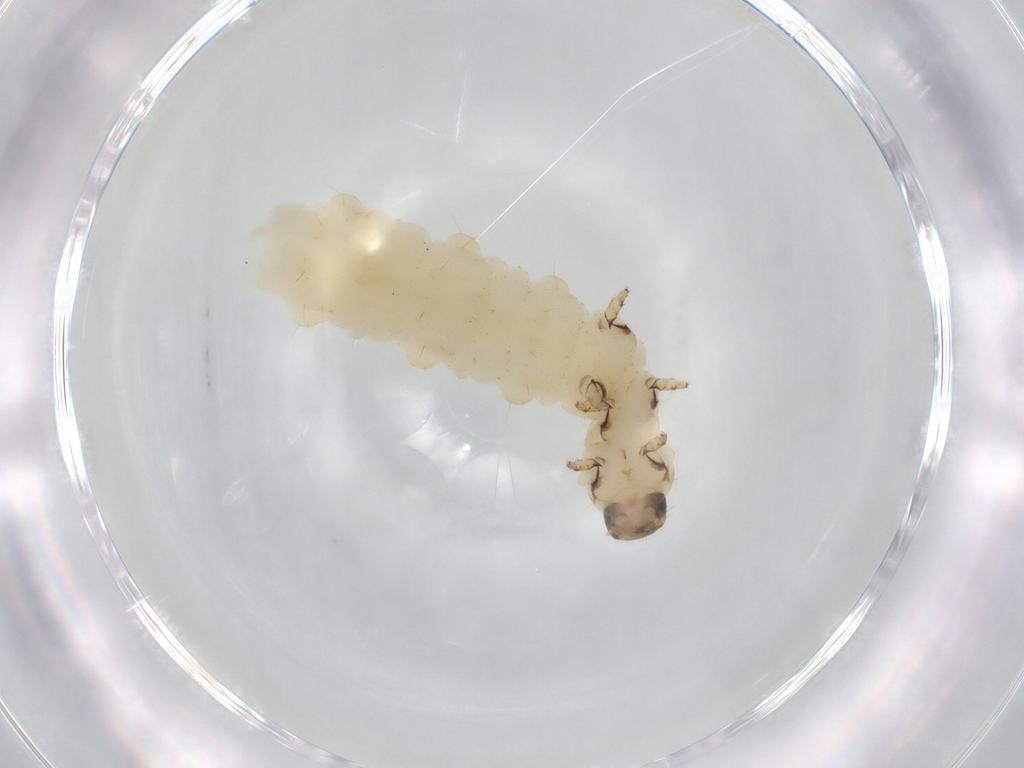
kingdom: Animalia
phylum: Arthropoda
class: Insecta
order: Coleoptera
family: Chrysomelidae
